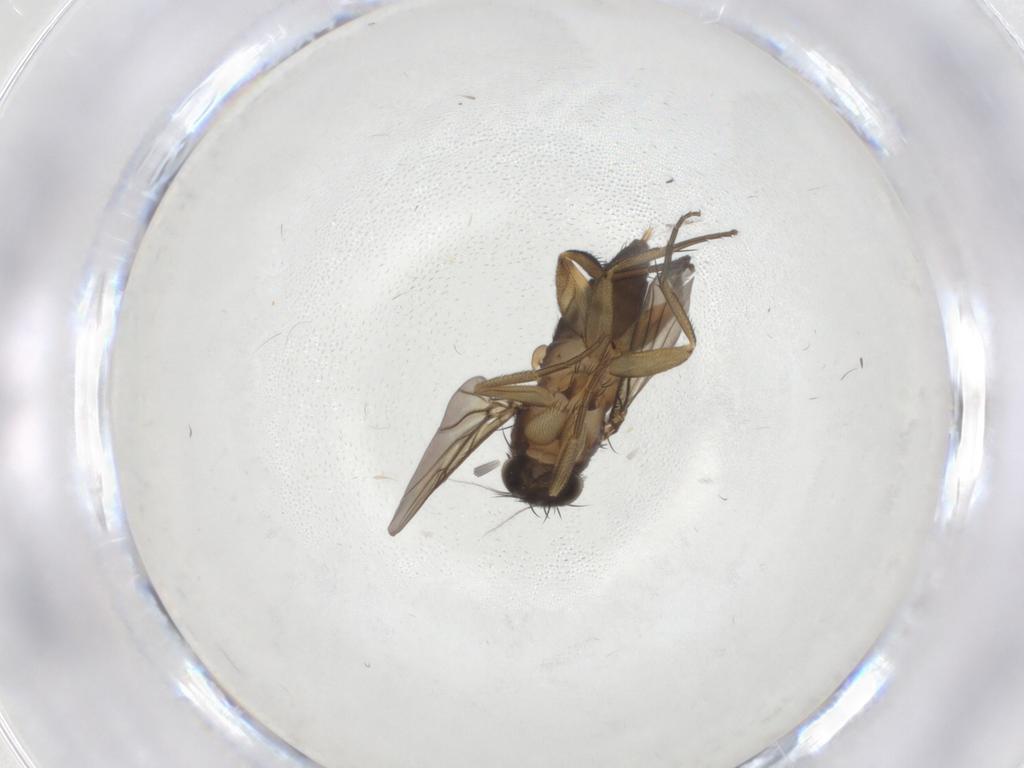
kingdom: Animalia
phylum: Arthropoda
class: Insecta
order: Diptera
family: Phoridae
